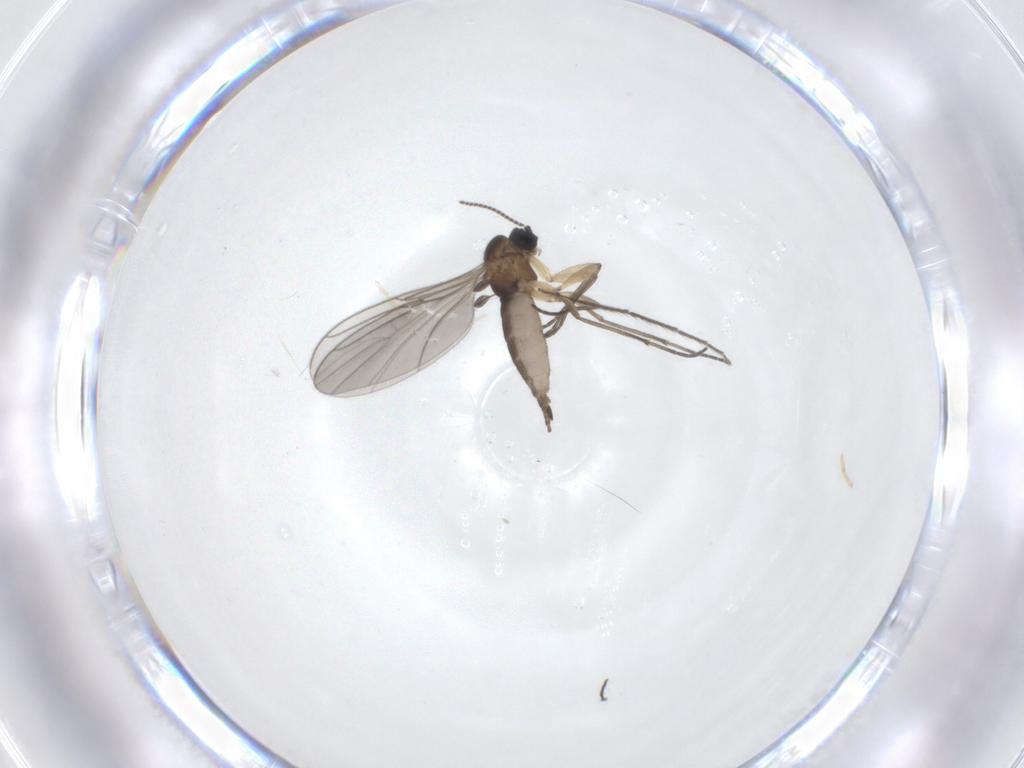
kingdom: Animalia
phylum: Arthropoda
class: Insecta
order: Diptera
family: Sciaridae
